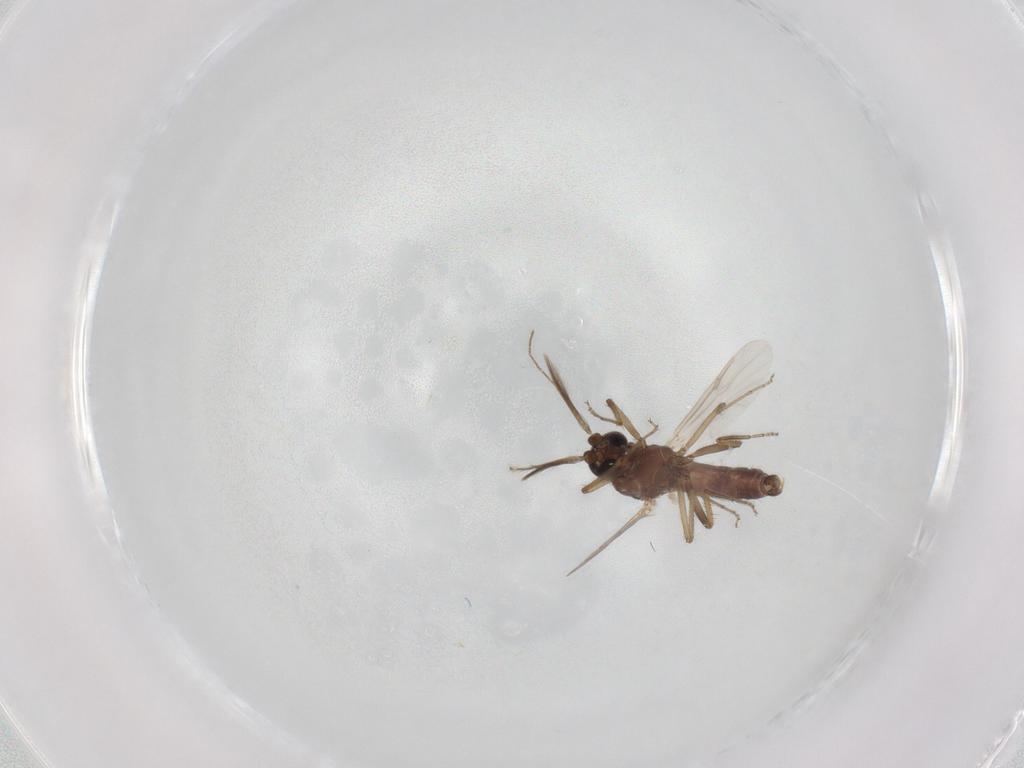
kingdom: Animalia
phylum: Arthropoda
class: Insecta
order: Diptera
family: Ceratopogonidae
